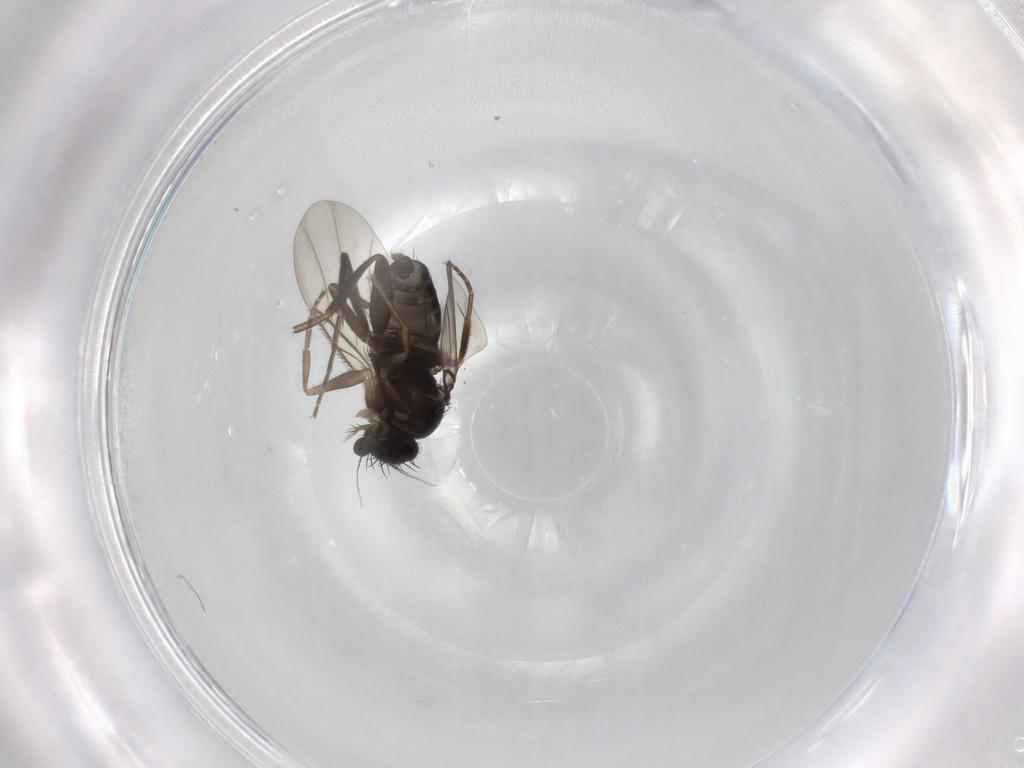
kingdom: Animalia
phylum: Arthropoda
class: Insecta
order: Diptera
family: Phoridae
